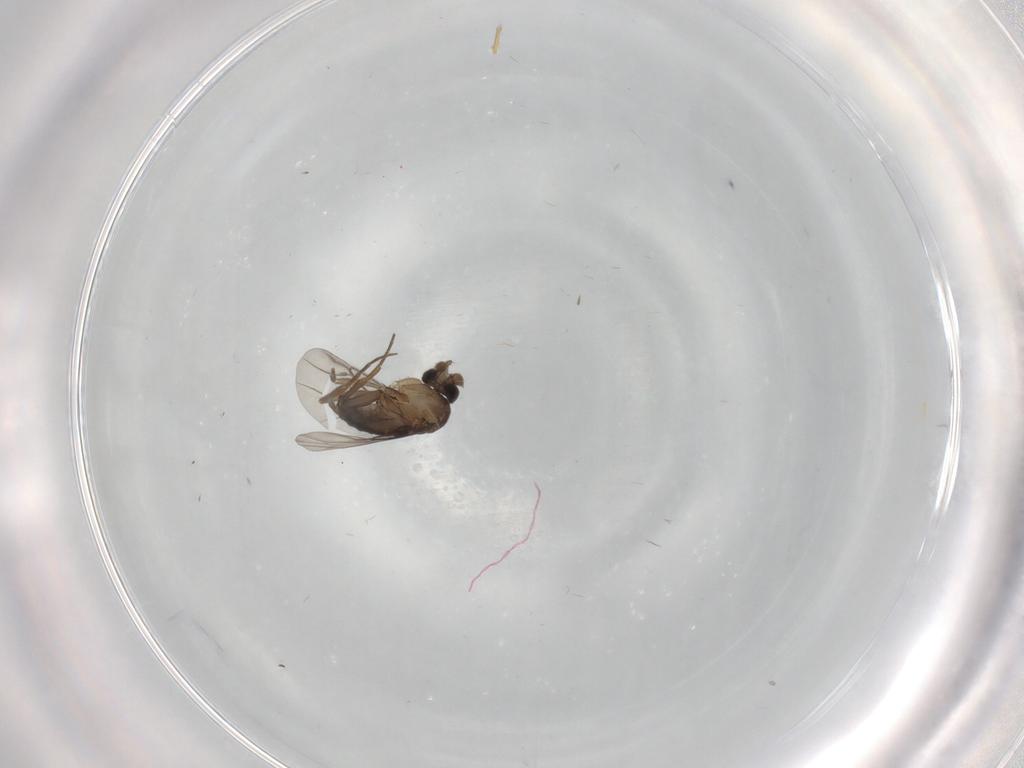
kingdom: Animalia
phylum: Arthropoda
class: Insecta
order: Diptera
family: Phoridae
